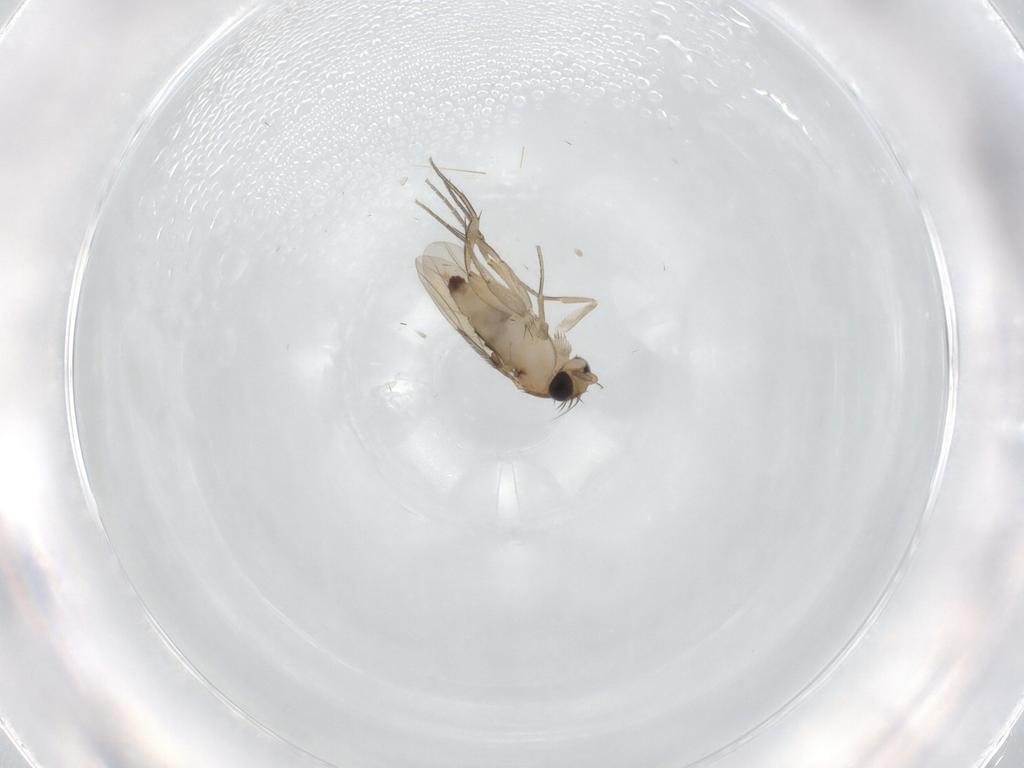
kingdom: Animalia
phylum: Arthropoda
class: Insecta
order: Diptera
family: Phoridae
